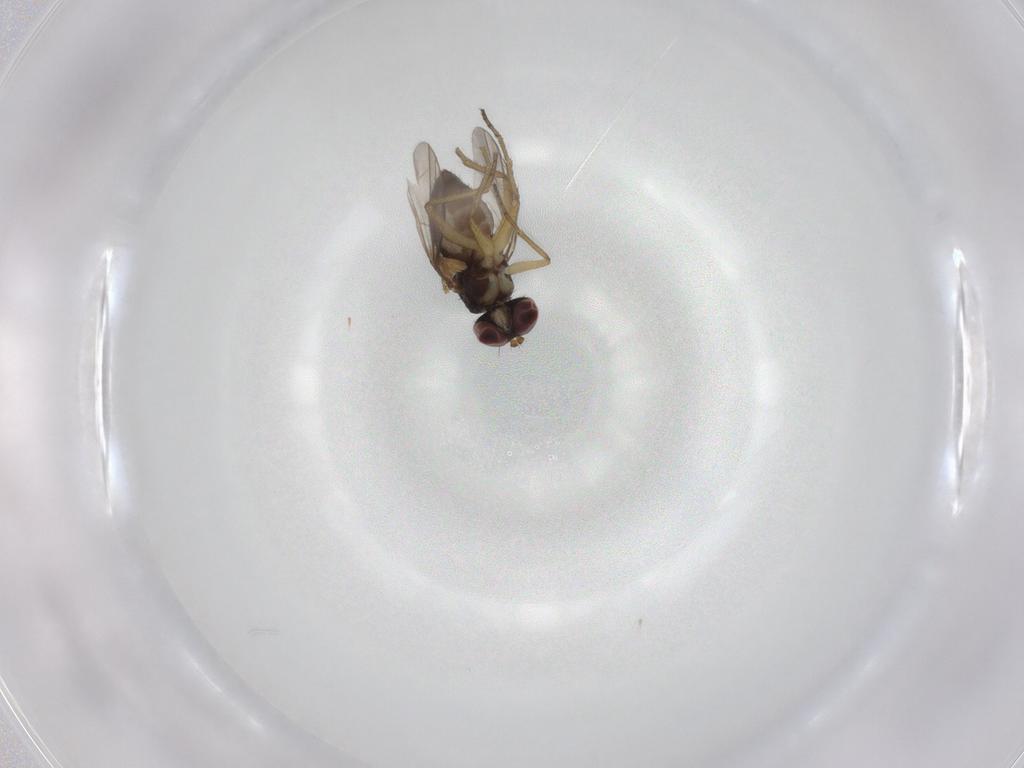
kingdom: Animalia
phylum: Arthropoda
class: Insecta
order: Diptera
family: Dolichopodidae
